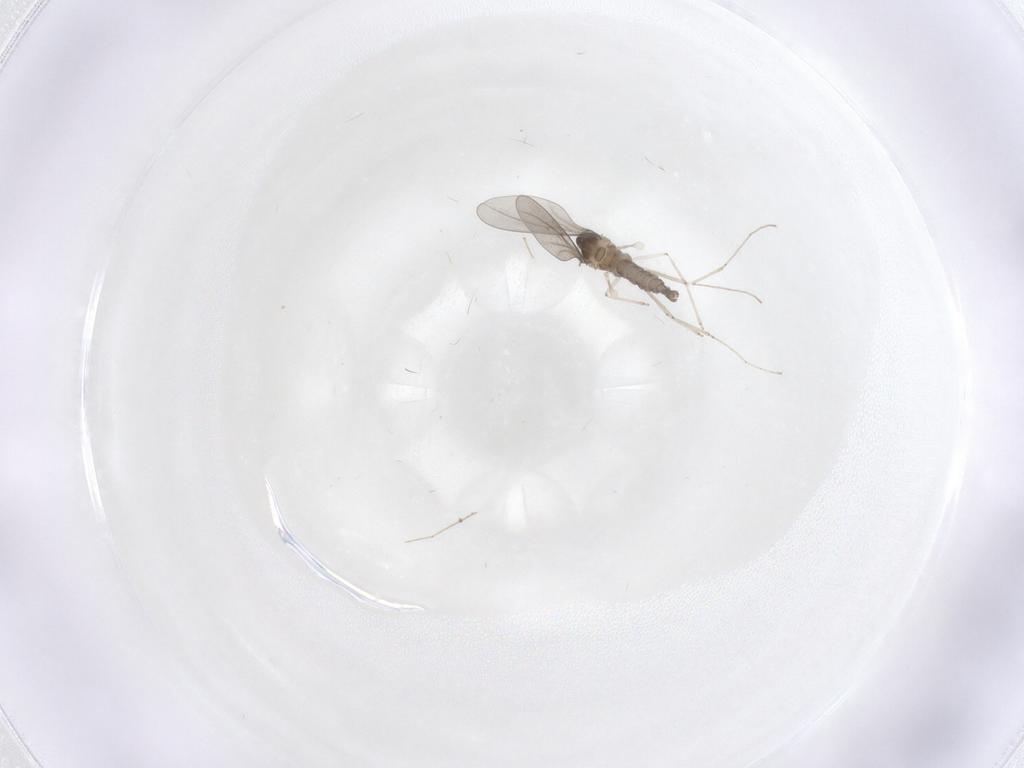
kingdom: Animalia
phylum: Arthropoda
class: Insecta
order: Diptera
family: Cecidomyiidae
